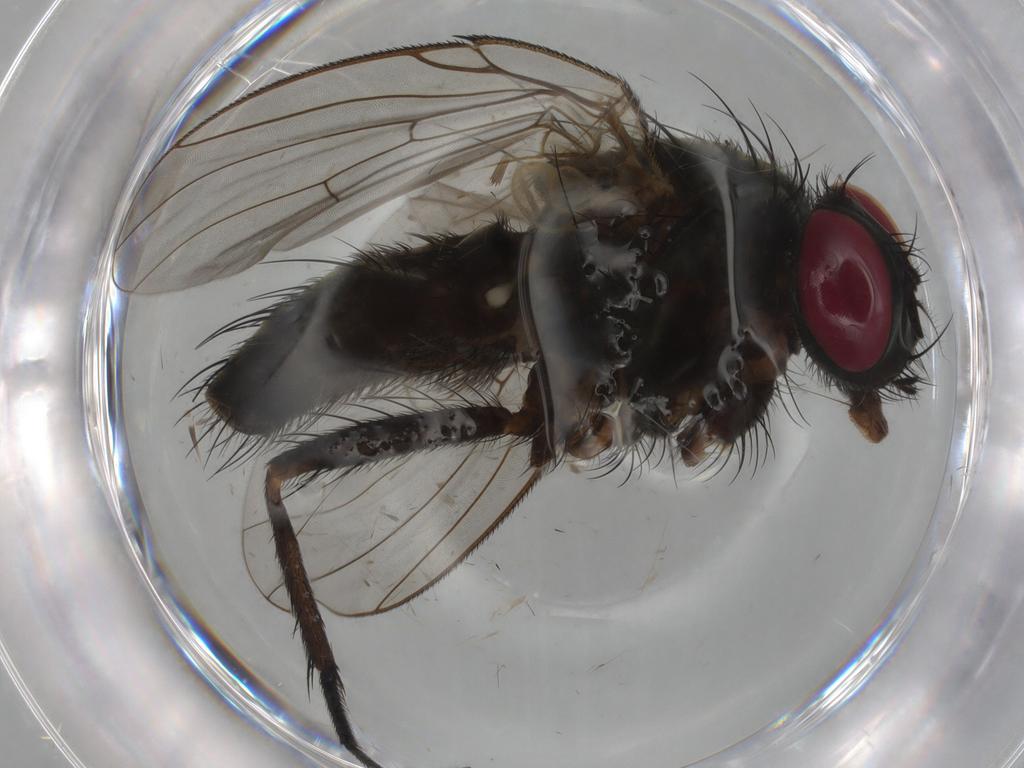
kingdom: Animalia
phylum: Arthropoda
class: Insecta
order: Diptera
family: Muscidae
